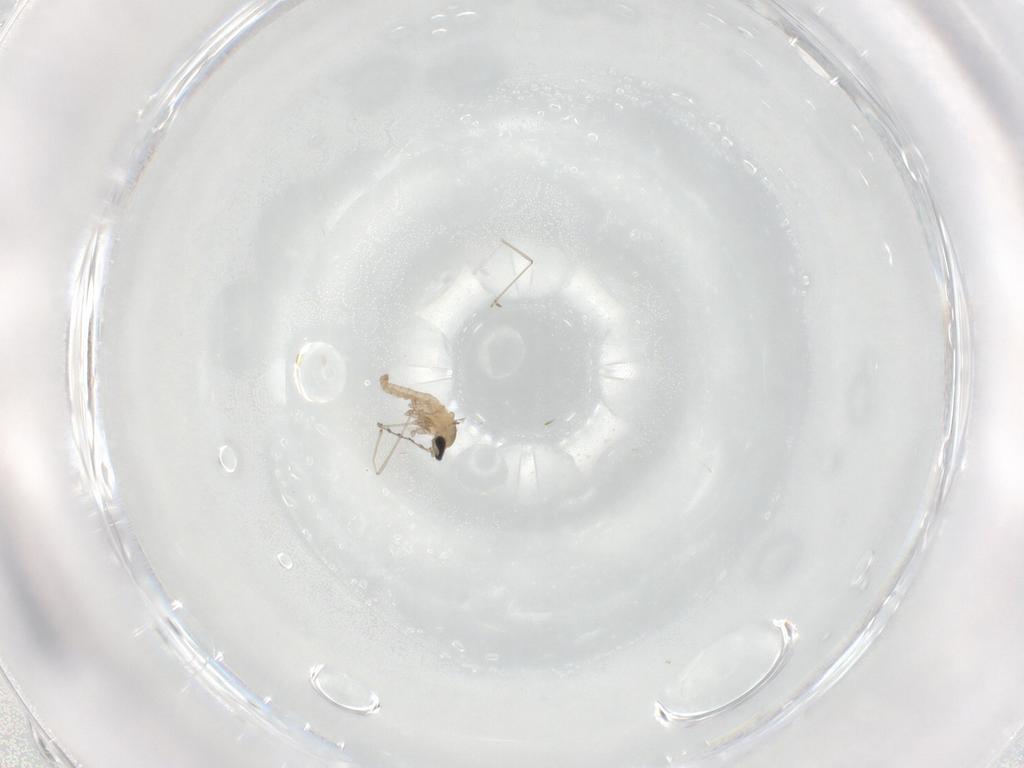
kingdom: Animalia
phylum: Arthropoda
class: Insecta
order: Diptera
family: Cecidomyiidae
